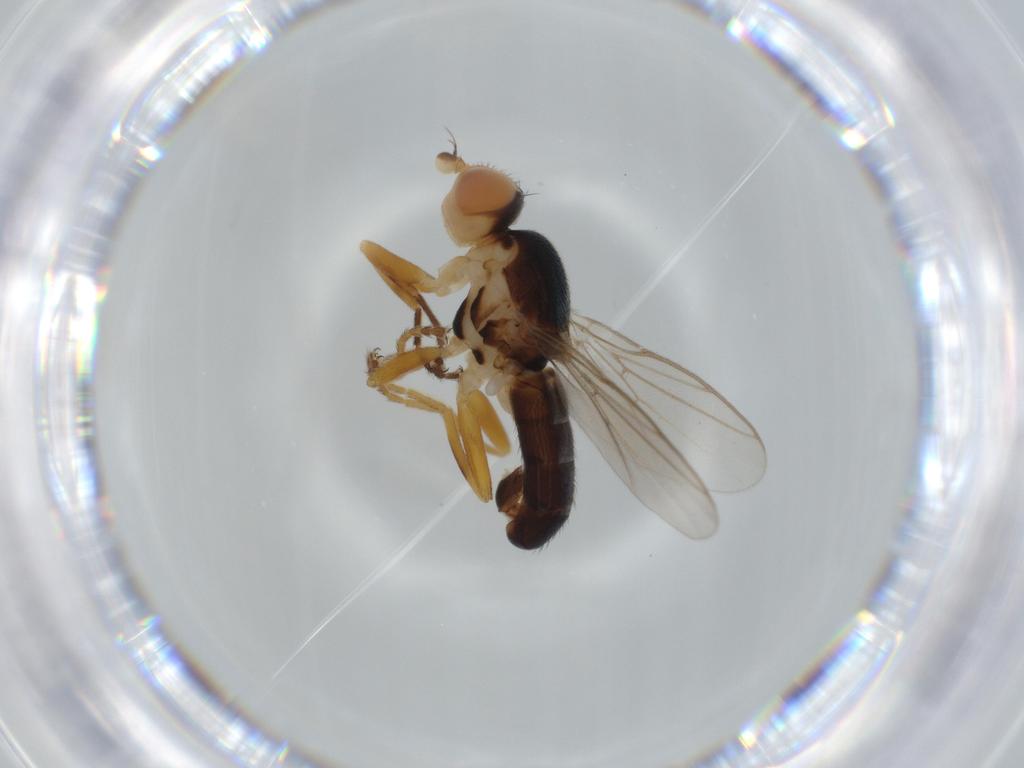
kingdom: Animalia
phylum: Arthropoda
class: Insecta
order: Diptera
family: Chloropidae
